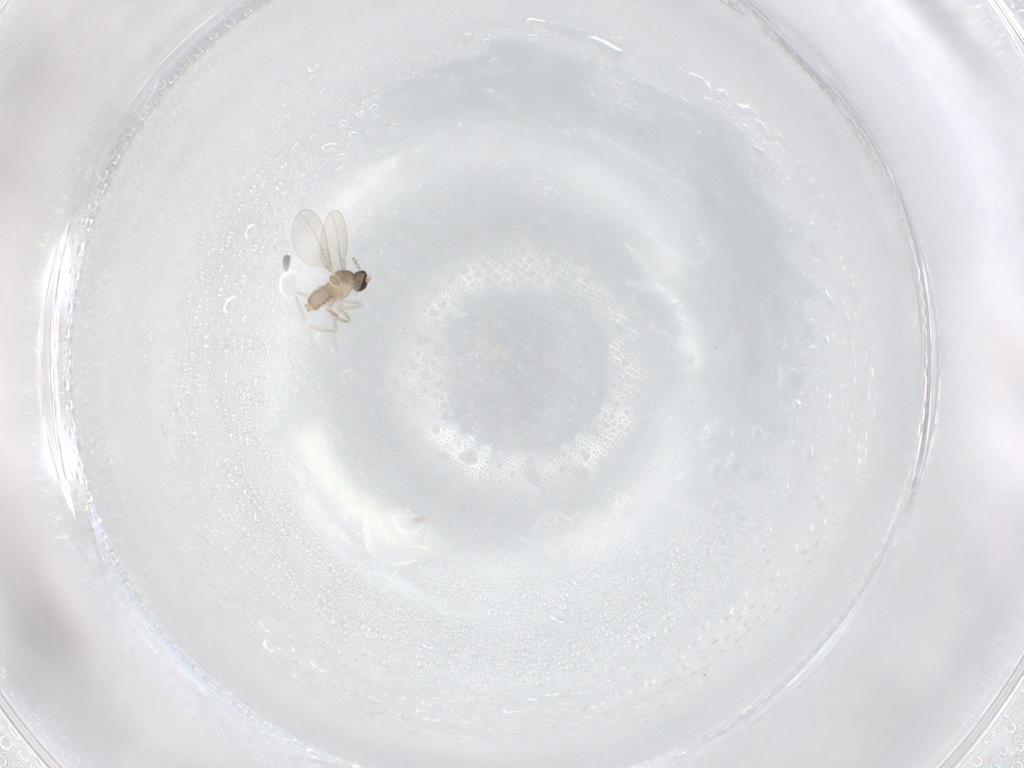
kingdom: Animalia
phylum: Arthropoda
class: Insecta
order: Diptera
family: Cecidomyiidae
